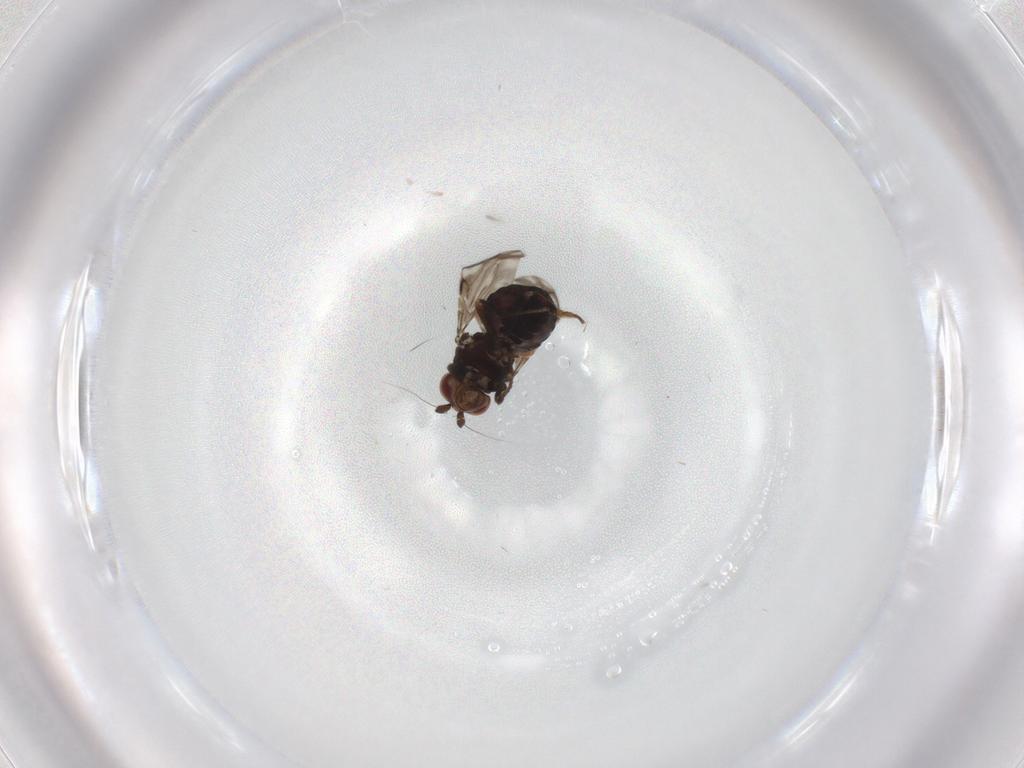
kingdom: Animalia
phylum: Arthropoda
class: Insecta
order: Diptera
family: Sphaeroceridae
